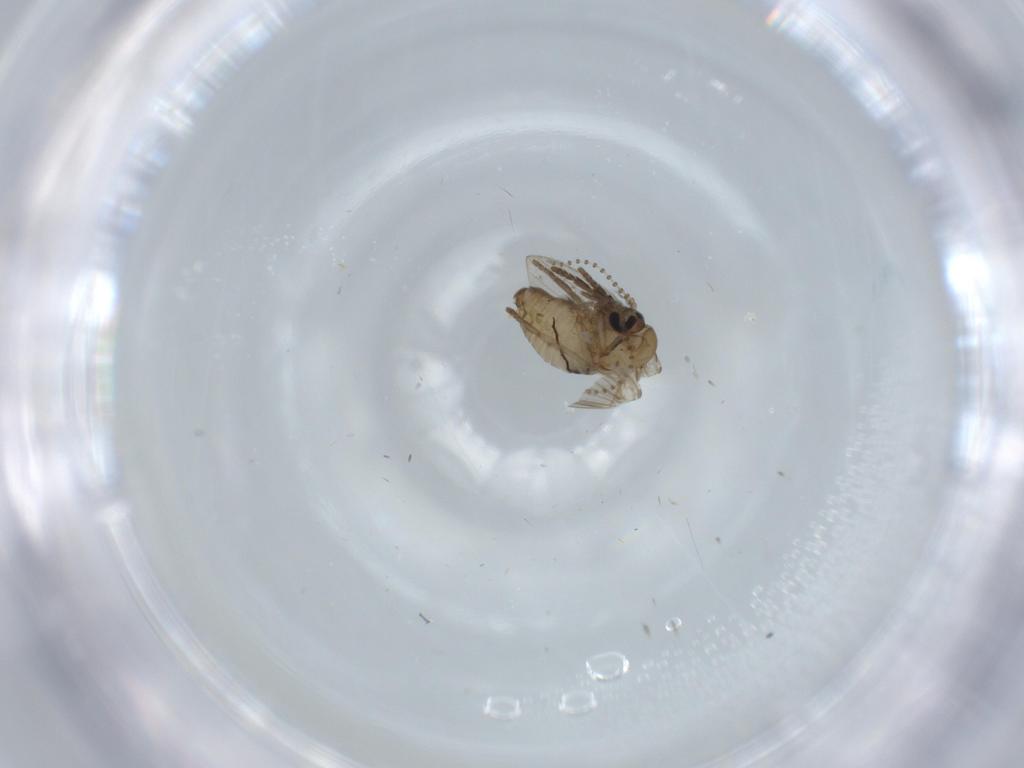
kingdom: Animalia
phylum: Arthropoda
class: Insecta
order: Diptera
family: Psychodidae
